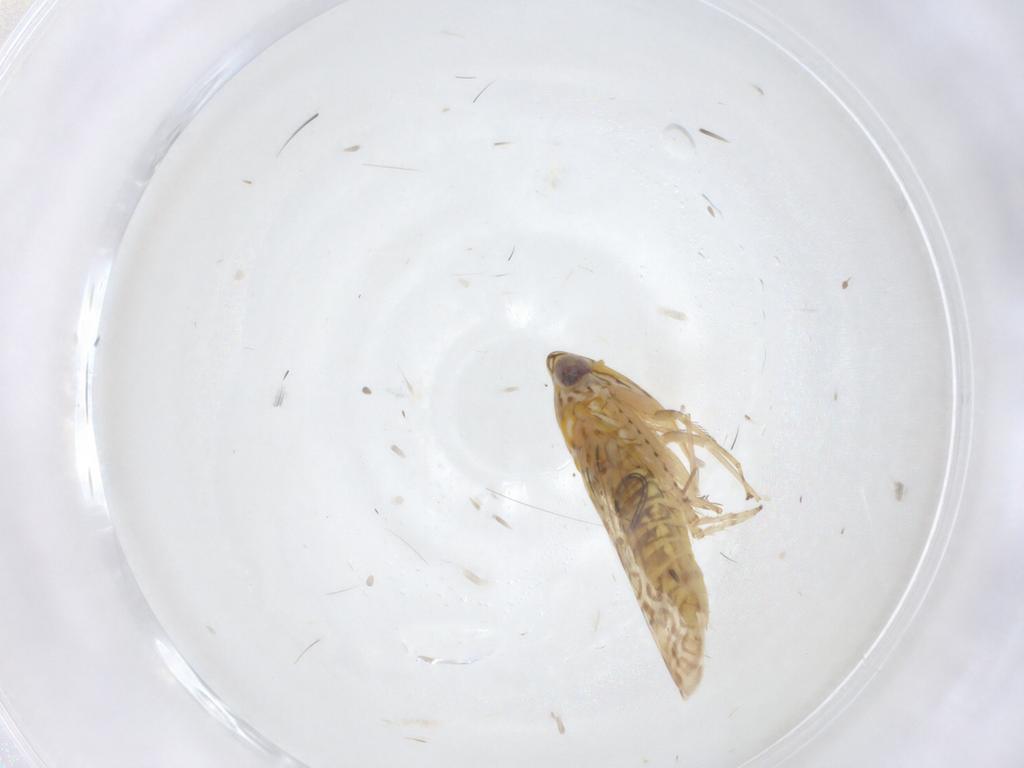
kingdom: Animalia
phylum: Arthropoda
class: Insecta
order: Hemiptera
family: Cicadellidae
